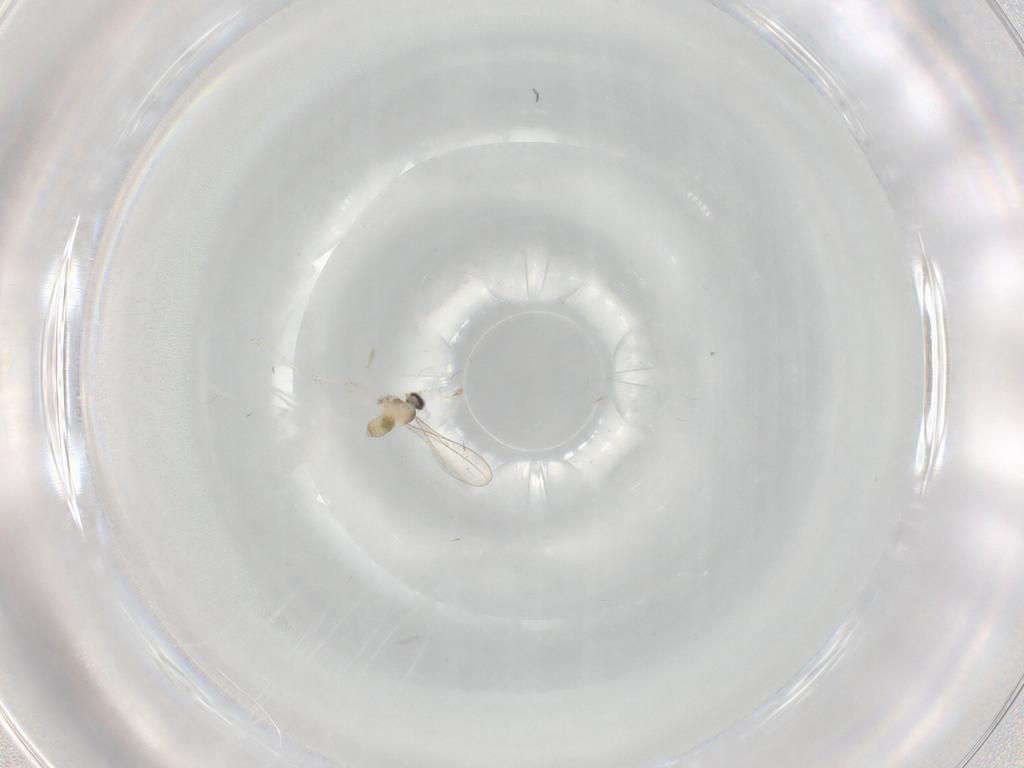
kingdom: Animalia
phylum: Arthropoda
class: Insecta
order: Diptera
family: Cecidomyiidae
